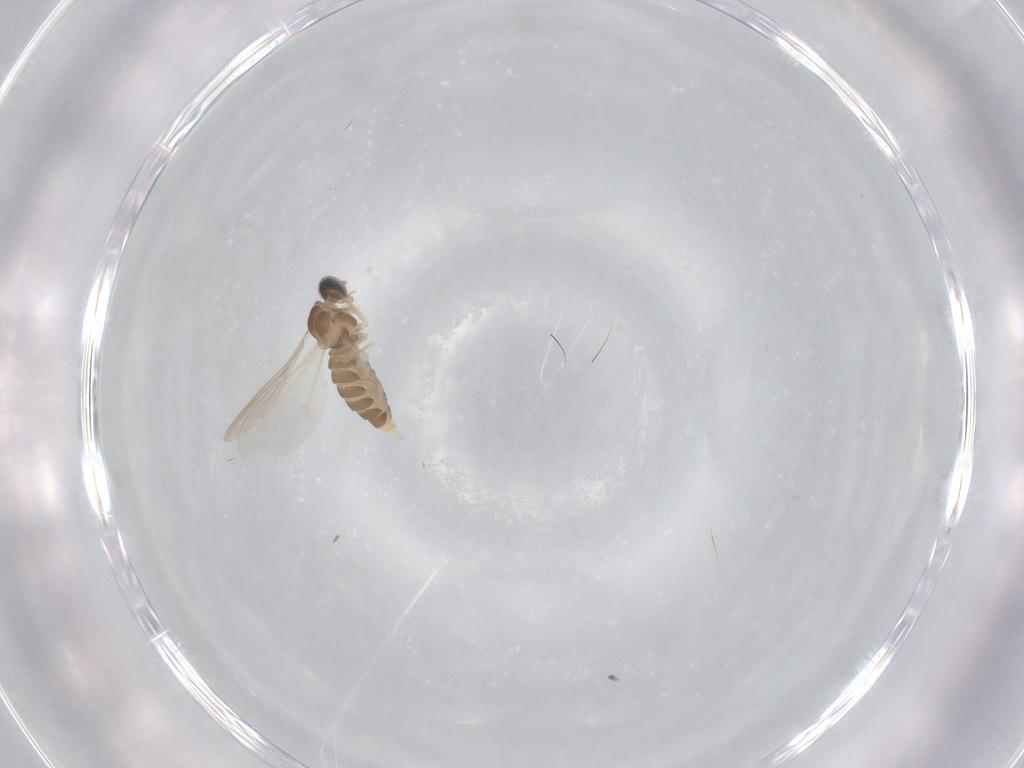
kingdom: Animalia
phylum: Arthropoda
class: Insecta
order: Diptera
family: Cecidomyiidae
